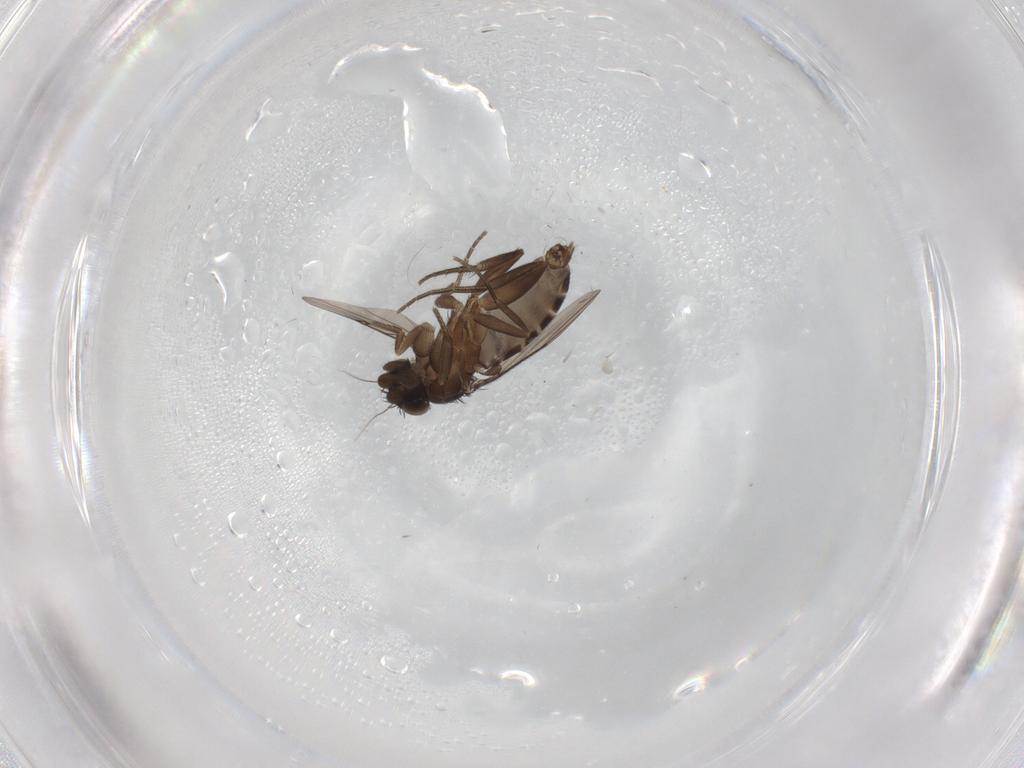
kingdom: Animalia
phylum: Arthropoda
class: Insecta
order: Diptera
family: Phoridae
